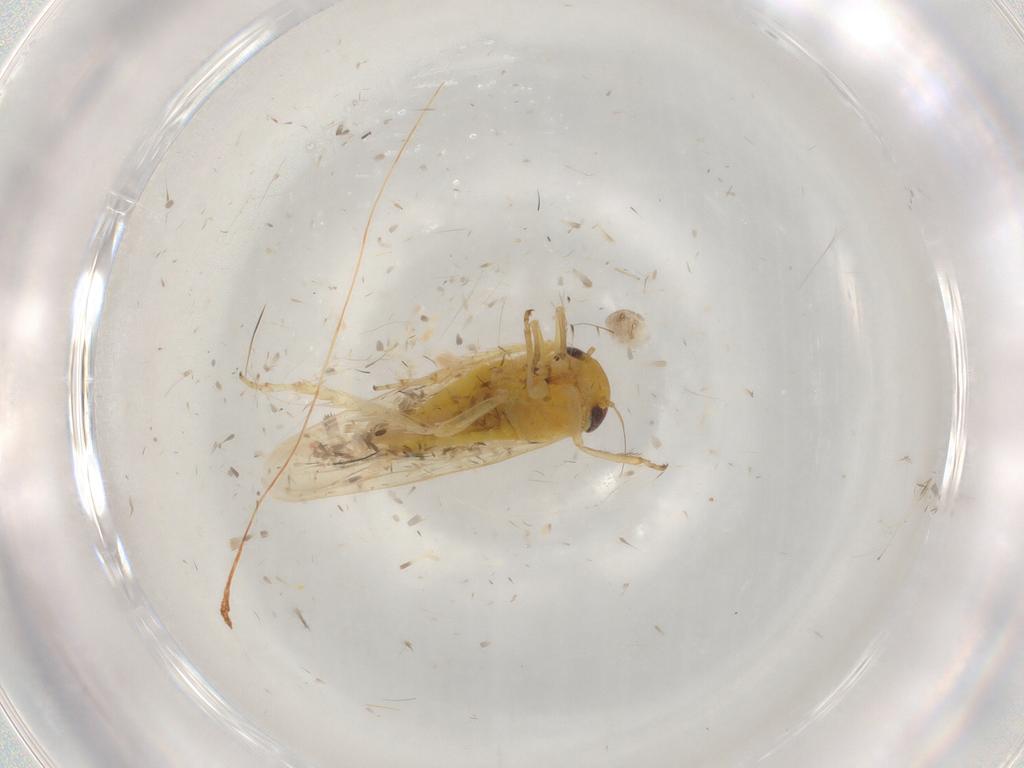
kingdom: Animalia
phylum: Arthropoda
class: Insecta
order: Hemiptera
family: Cicadellidae
